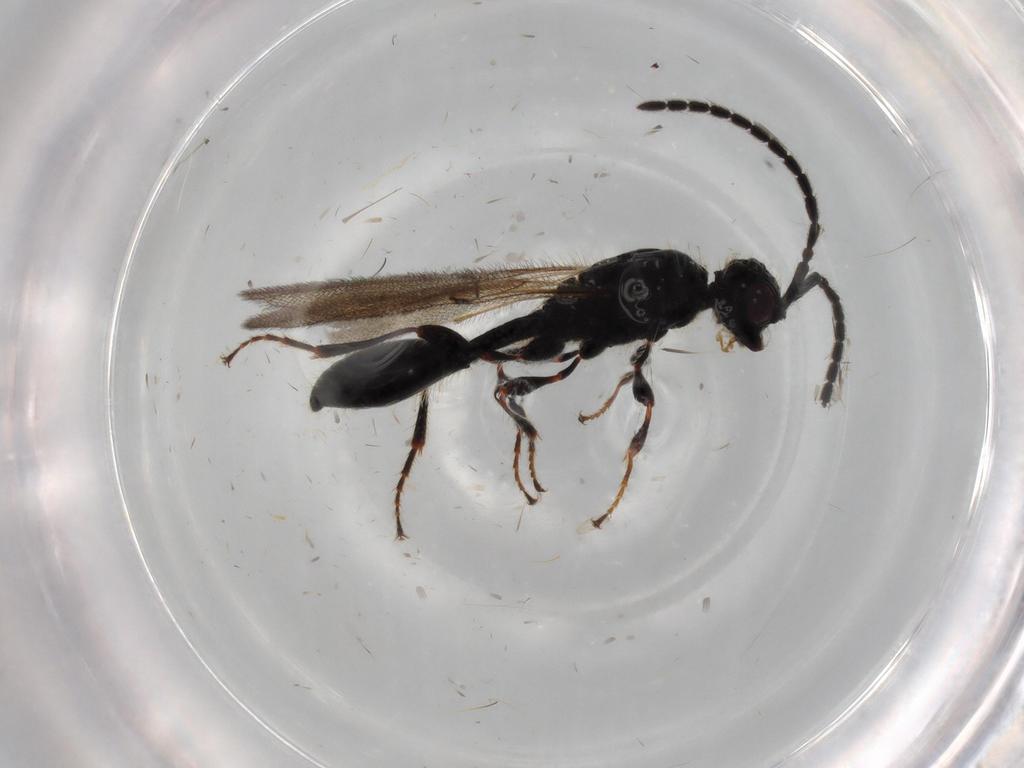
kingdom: Animalia
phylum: Arthropoda
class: Insecta
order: Hymenoptera
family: Diapriidae
